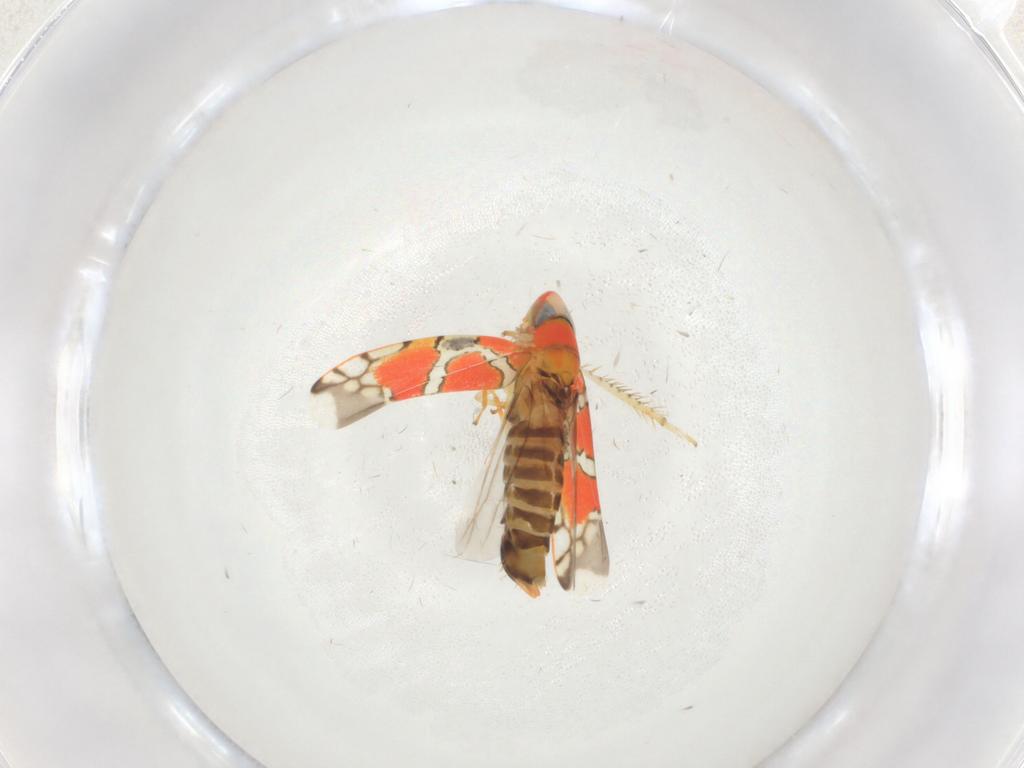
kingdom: Animalia
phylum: Arthropoda
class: Insecta
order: Hemiptera
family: Cicadellidae
